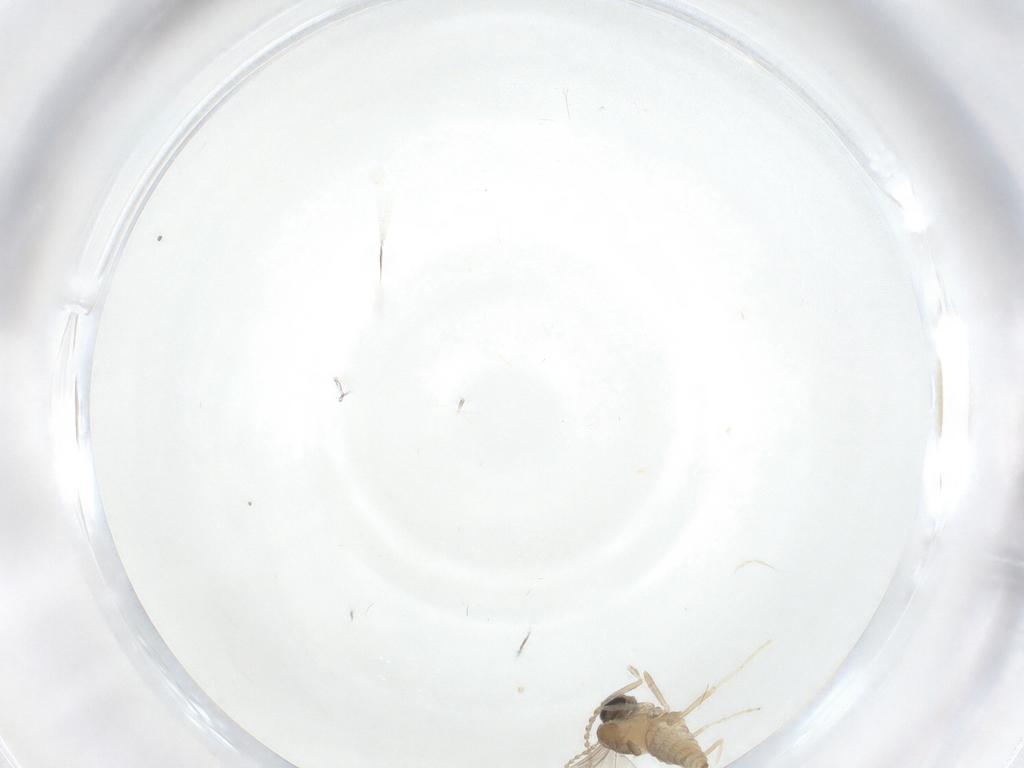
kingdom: Animalia
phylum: Arthropoda
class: Insecta
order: Diptera
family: Cecidomyiidae
